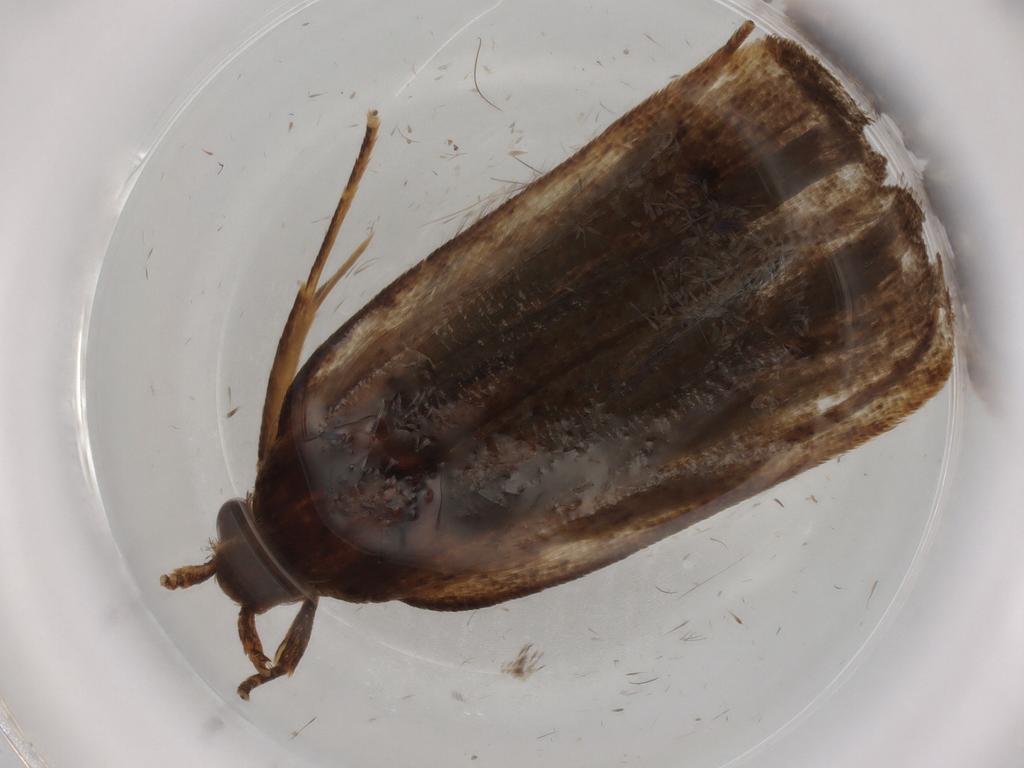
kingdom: Animalia
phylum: Arthropoda
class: Insecta
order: Lepidoptera
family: Autostichidae
